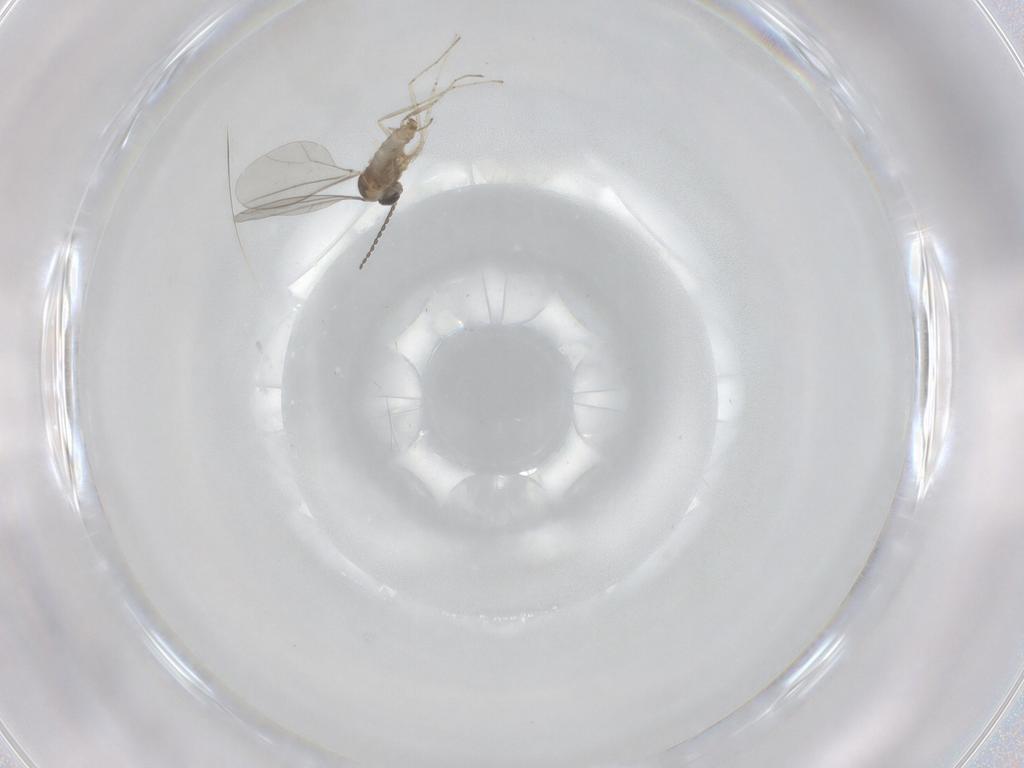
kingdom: Animalia
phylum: Arthropoda
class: Insecta
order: Diptera
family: Cecidomyiidae
